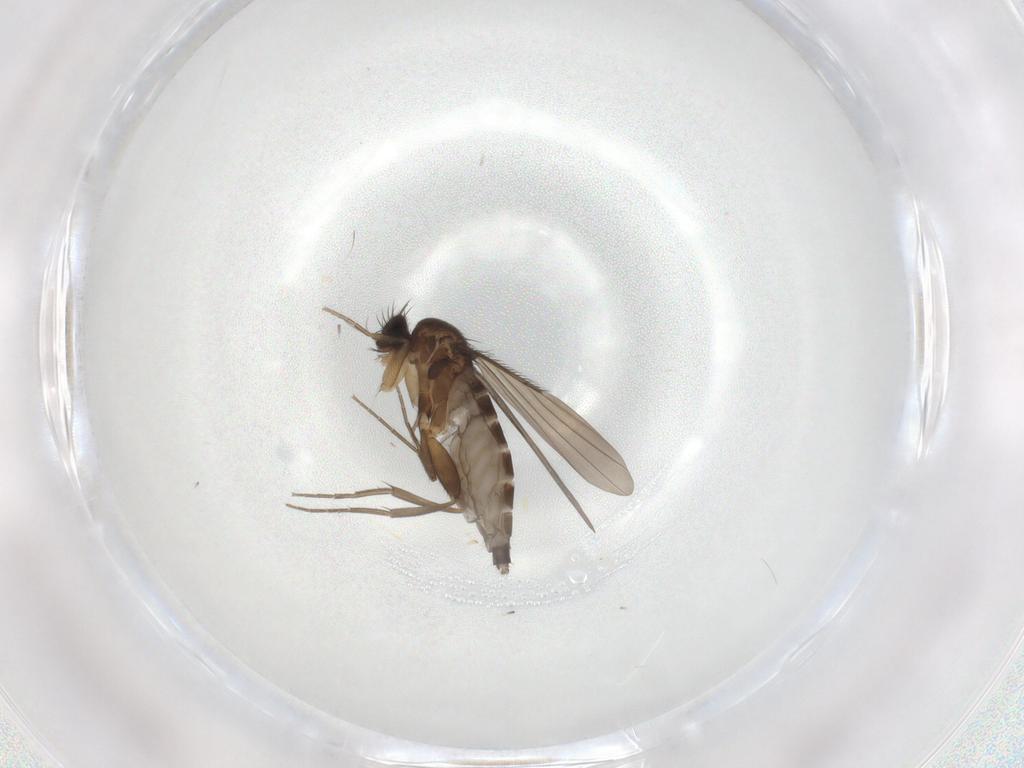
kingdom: Animalia
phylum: Arthropoda
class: Insecta
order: Diptera
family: Phoridae
